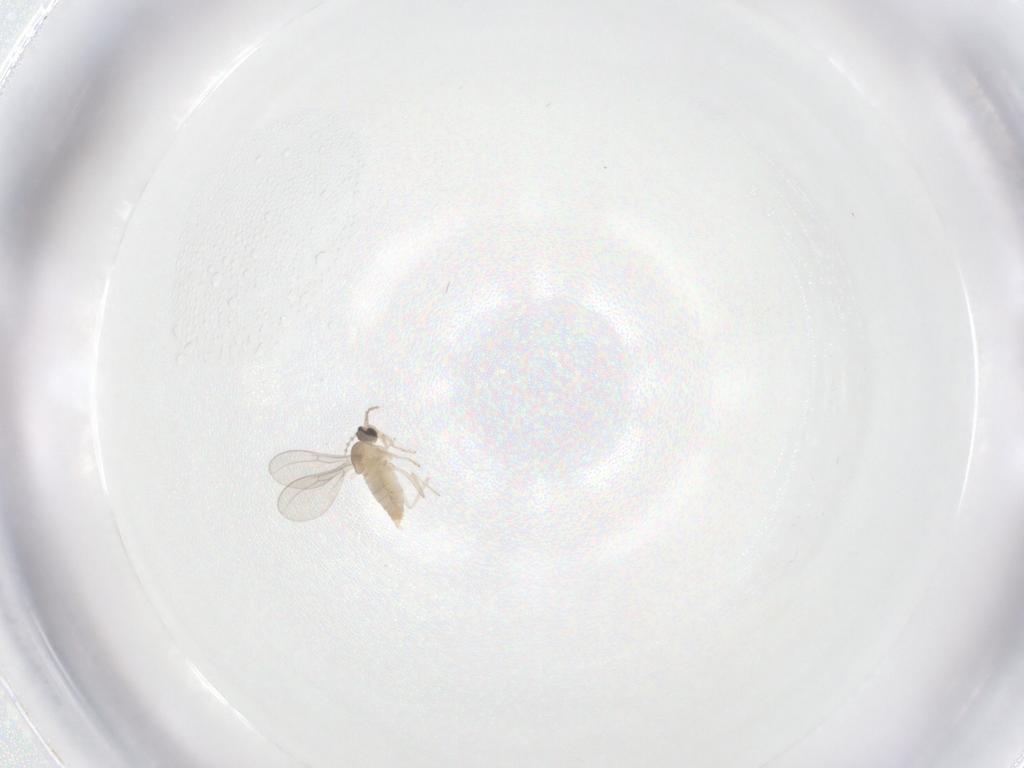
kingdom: Animalia
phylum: Arthropoda
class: Insecta
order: Diptera
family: Cecidomyiidae
